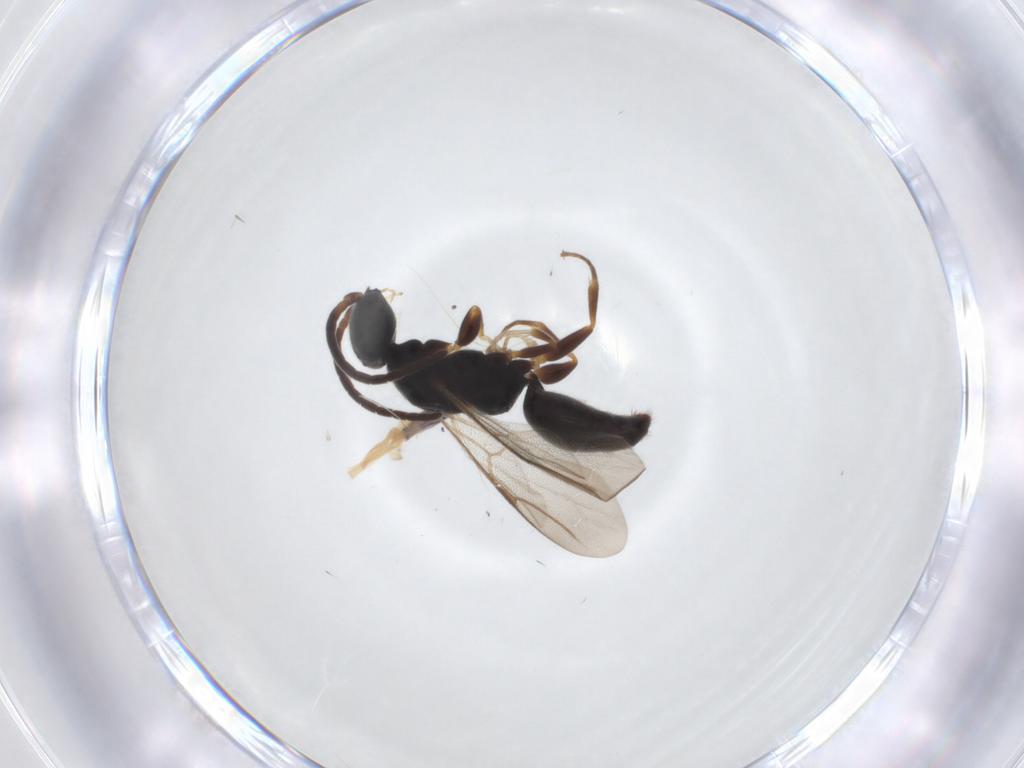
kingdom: Animalia
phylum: Arthropoda
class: Insecta
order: Hymenoptera
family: Bethylidae
